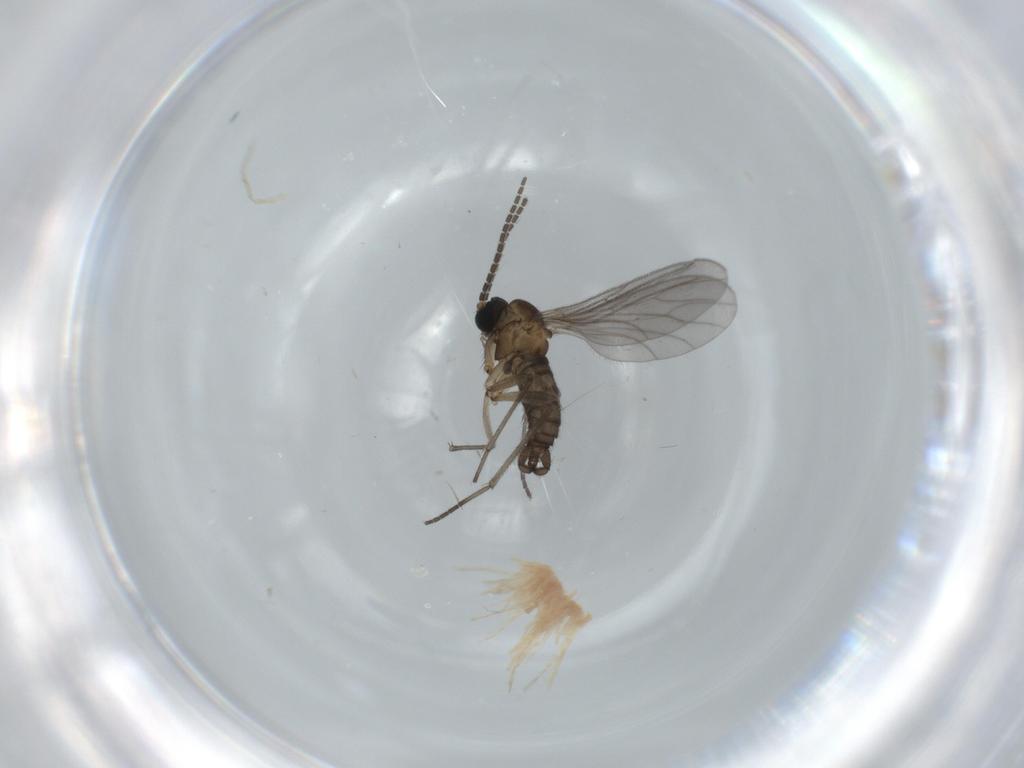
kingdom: Animalia
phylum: Arthropoda
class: Insecta
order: Diptera
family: Sciaridae
